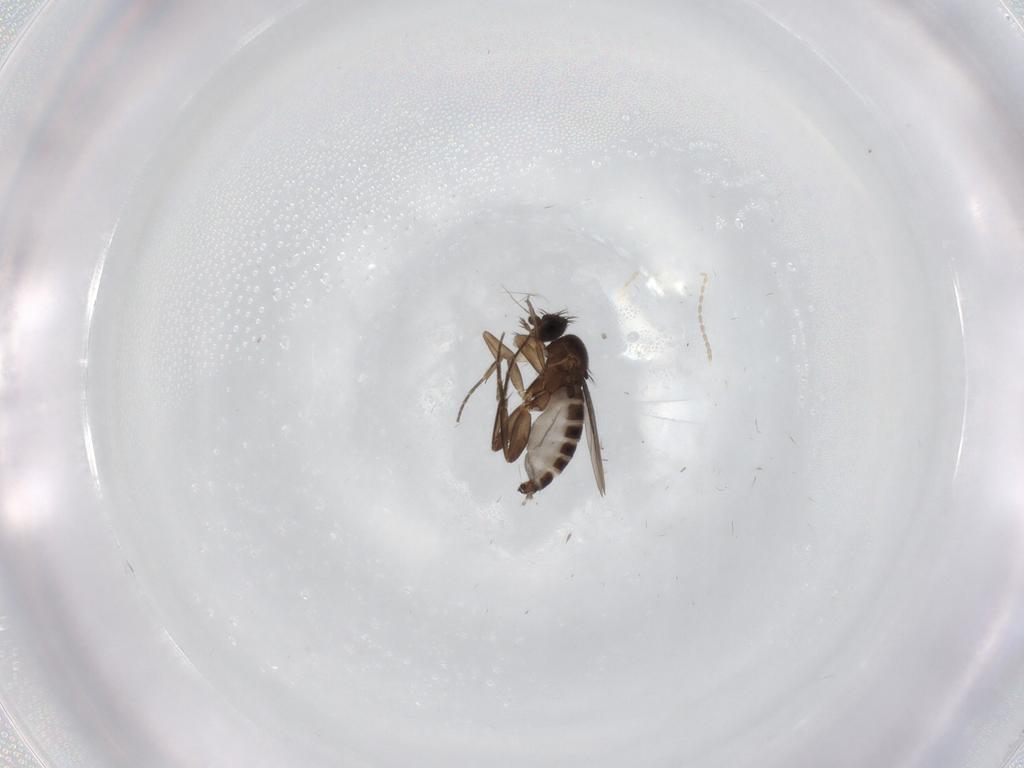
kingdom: Animalia
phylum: Arthropoda
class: Insecta
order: Diptera
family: Phoridae
